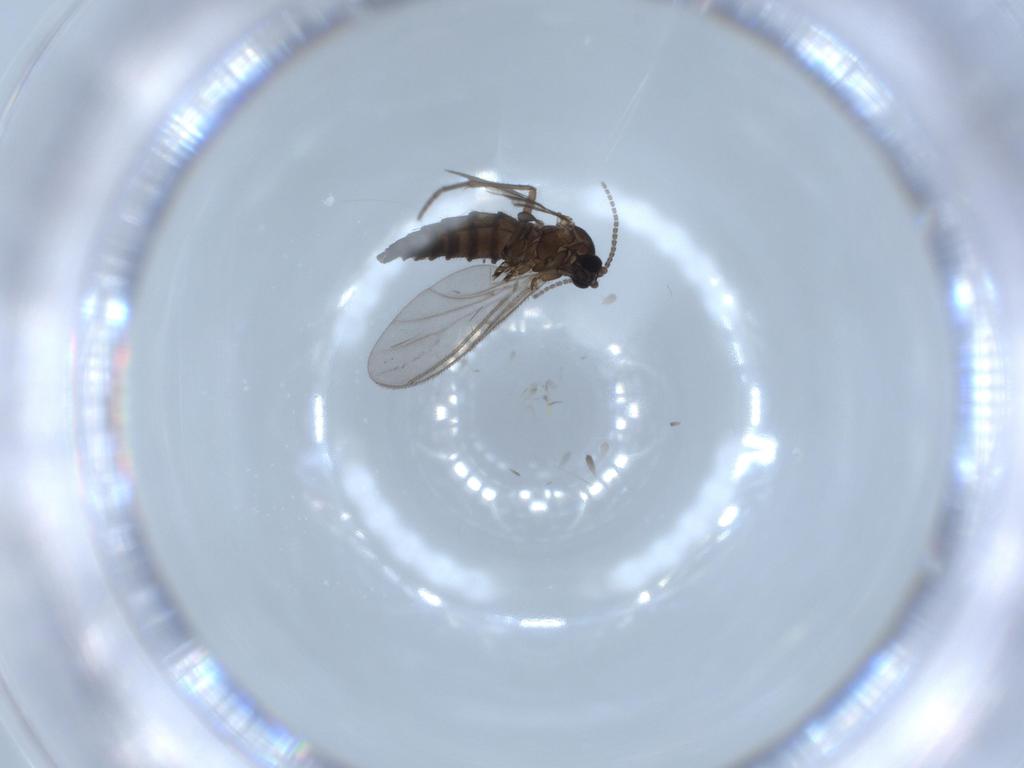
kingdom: Animalia
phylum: Arthropoda
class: Insecta
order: Diptera
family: Sciaridae
